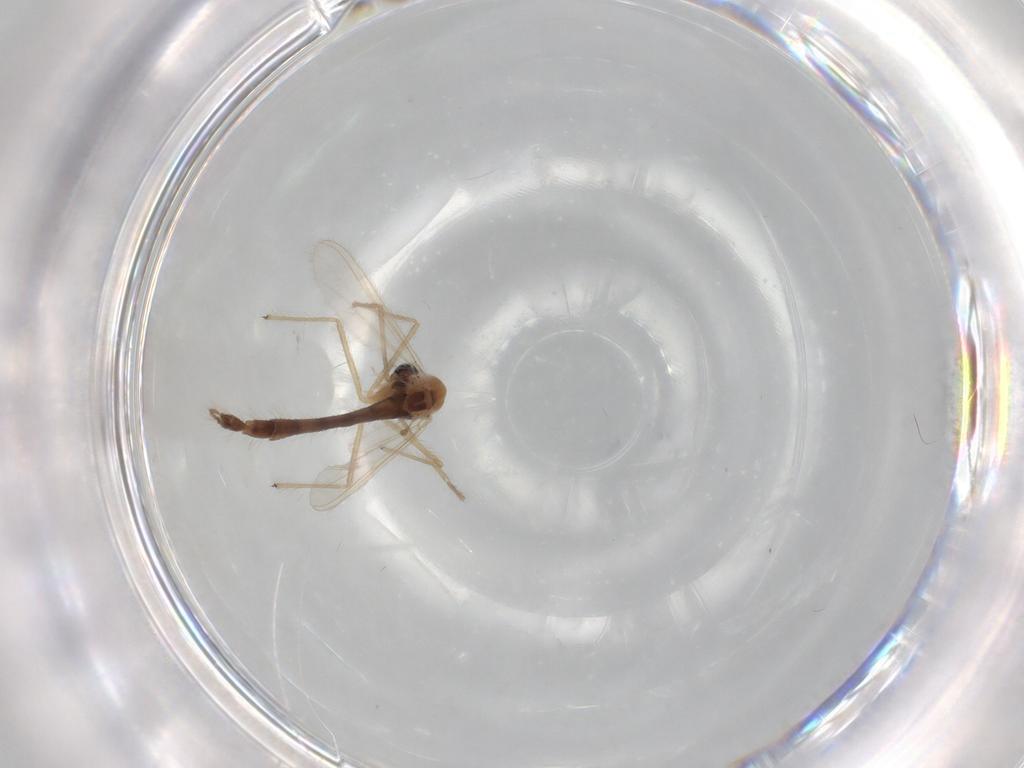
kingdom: Animalia
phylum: Arthropoda
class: Insecta
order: Diptera
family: Chironomidae
